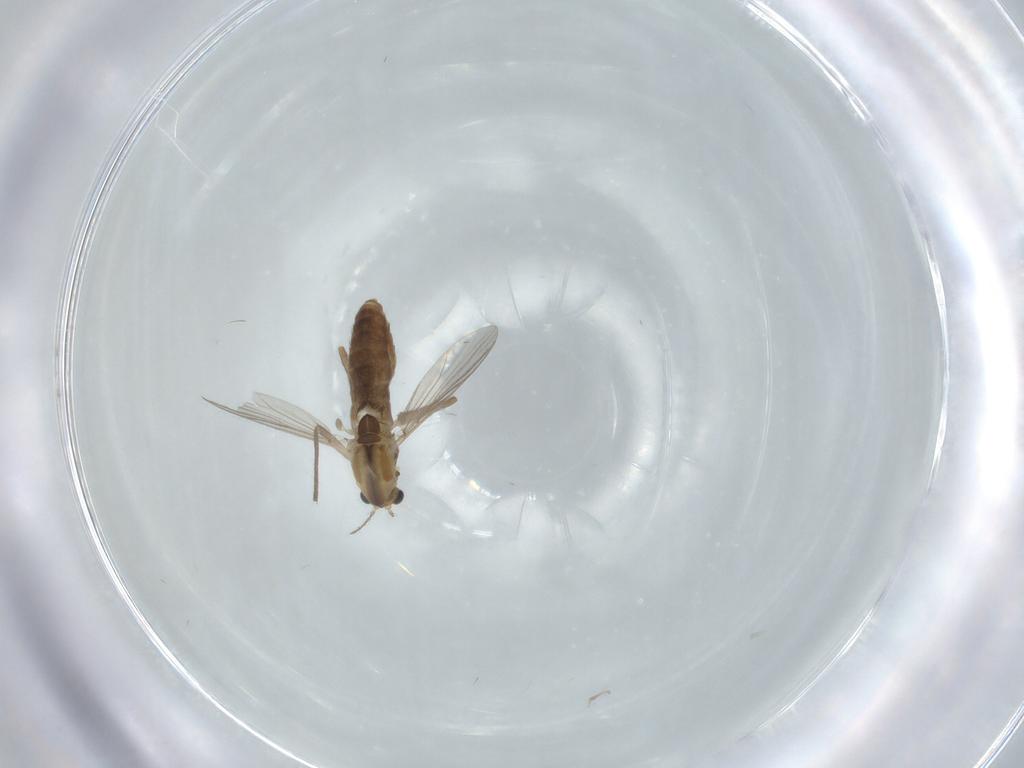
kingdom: Animalia
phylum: Arthropoda
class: Insecta
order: Diptera
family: Chironomidae
